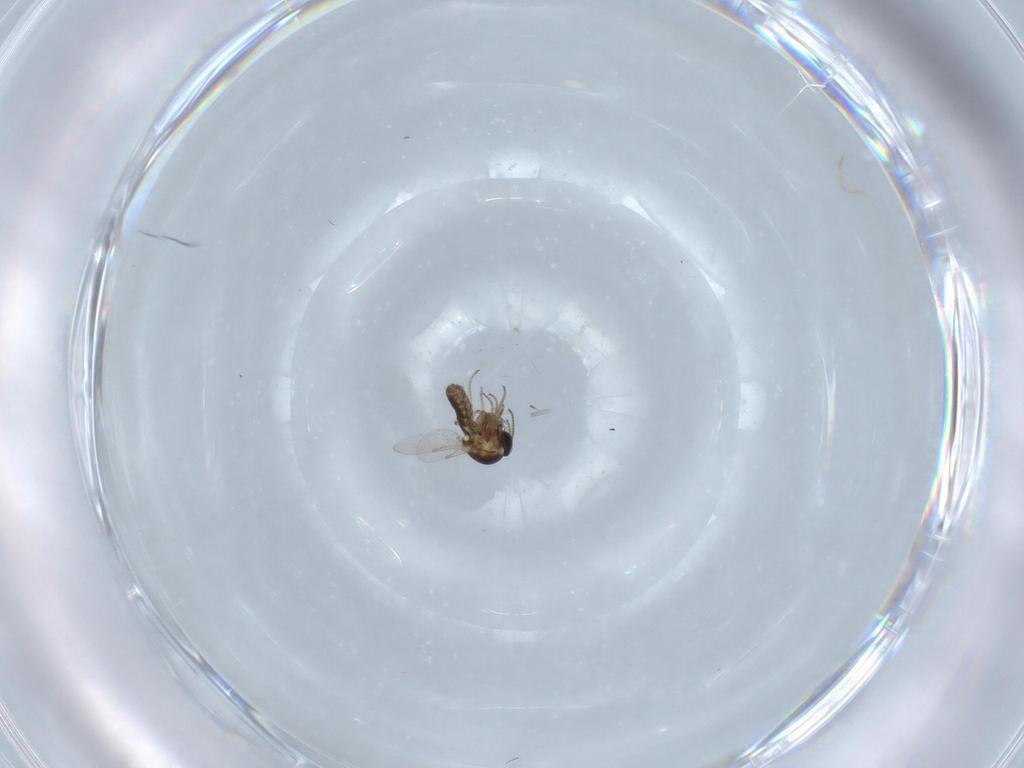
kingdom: Animalia
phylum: Arthropoda
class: Insecta
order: Diptera
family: Ceratopogonidae
